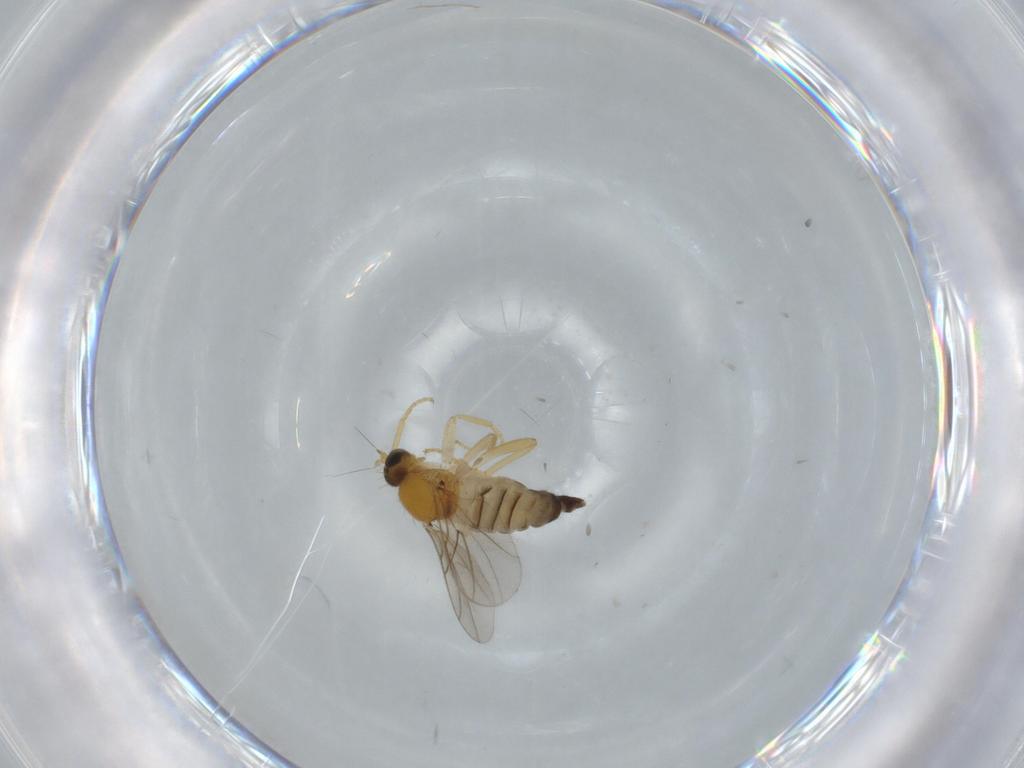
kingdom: Animalia
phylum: Arthropoda
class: Insecta
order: Diptera
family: Hybotidae
